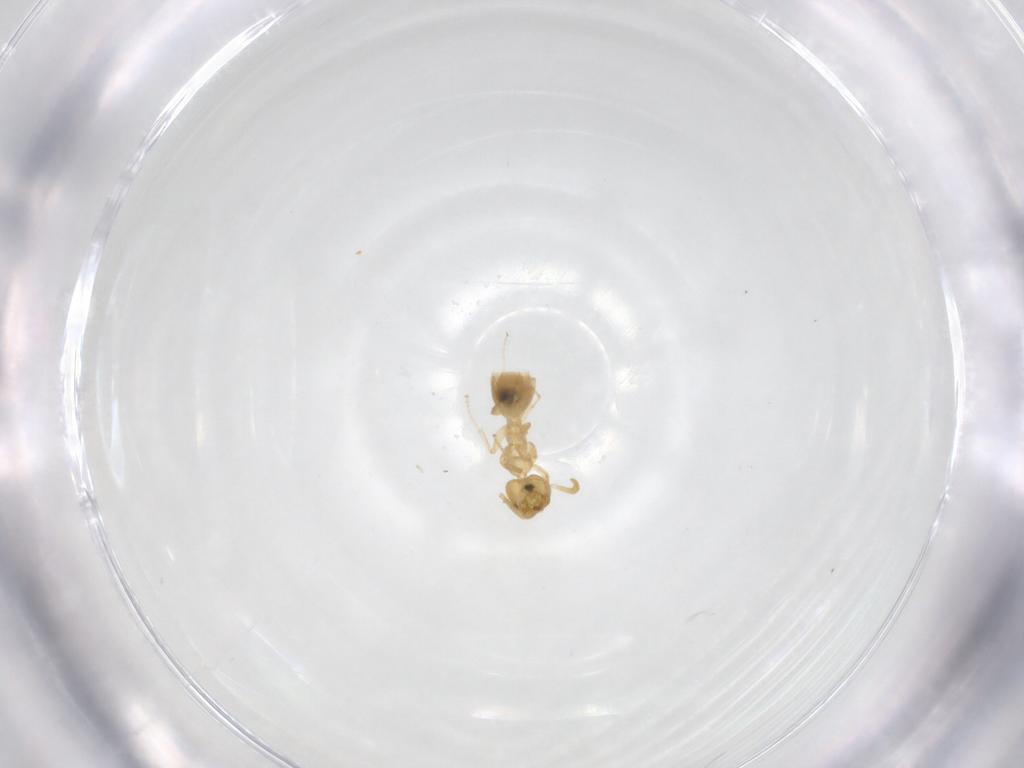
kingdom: Animalia
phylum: Arthropoda
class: Insecta
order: Hymenoptera
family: Formicidae
